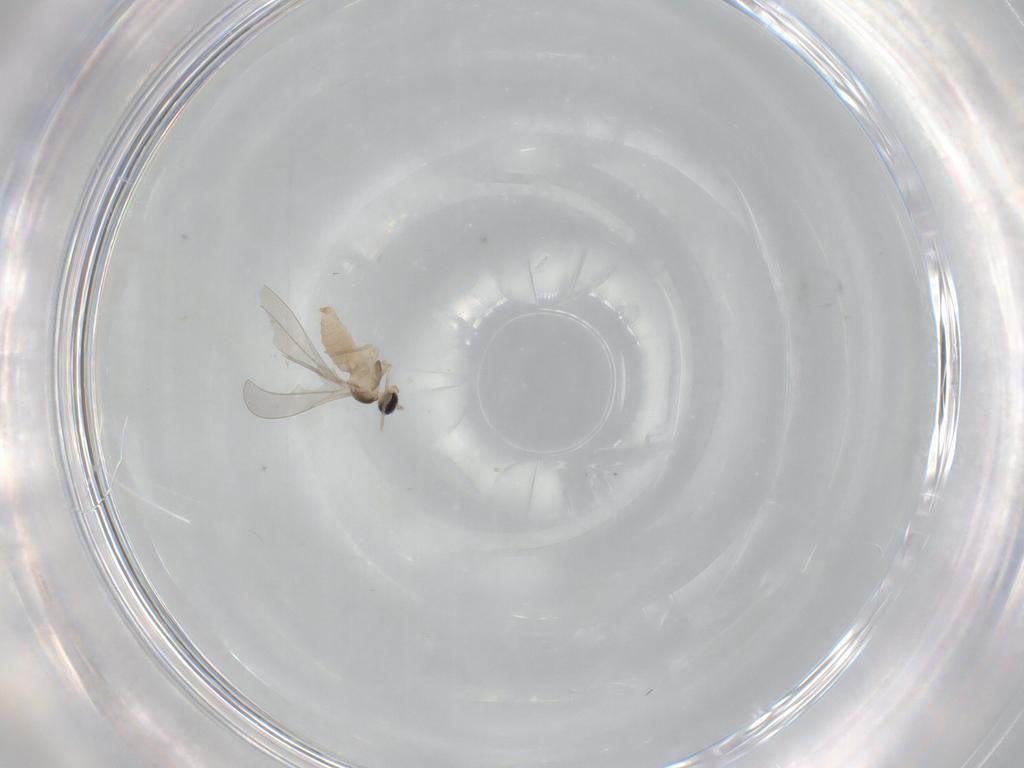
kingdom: Animalia
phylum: Arthropoda
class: Insecta
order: Diptera
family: Cecidomyiidae
